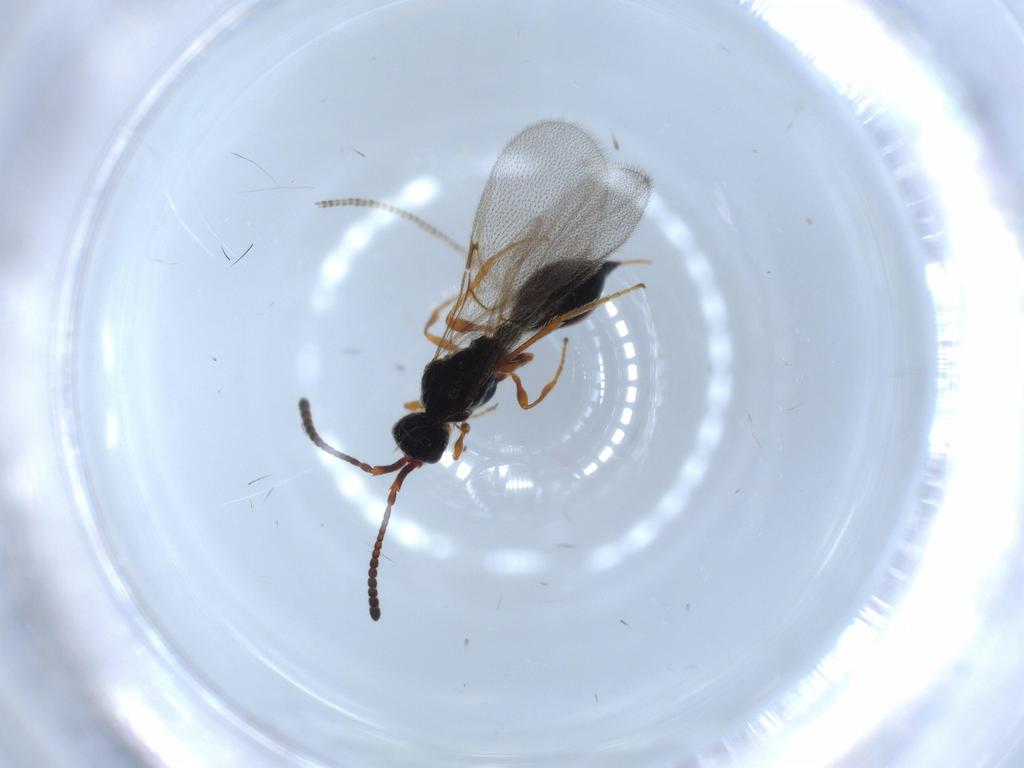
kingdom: Animalia
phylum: Arthropoda
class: Insecta
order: Hymenoptera
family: Diapriidae
